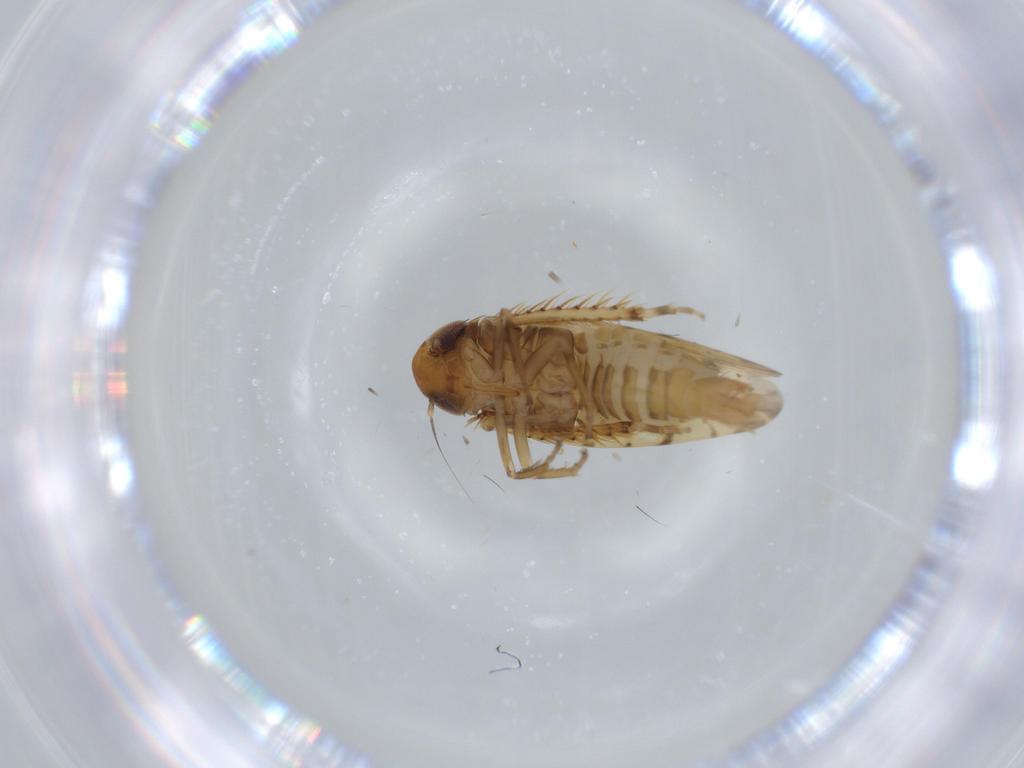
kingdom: Animalia
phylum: Arthropoda
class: Insecta
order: Hemiptera
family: Cicadellidae
